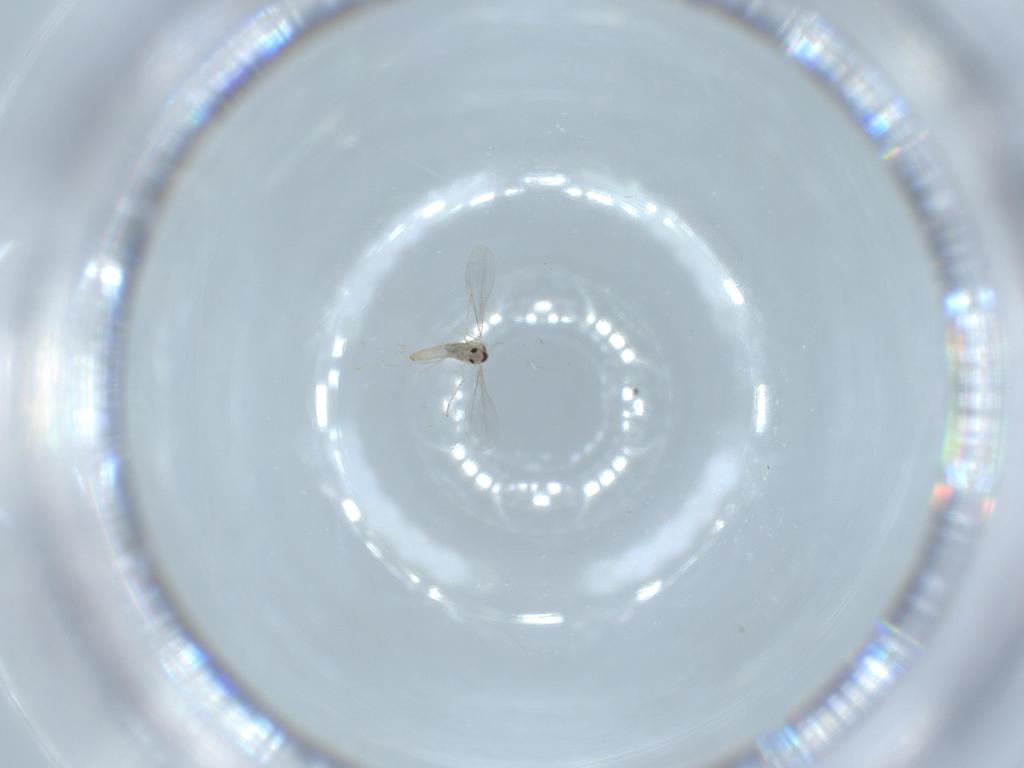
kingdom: Animalia
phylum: Arthropoda
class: Insecta
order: Diptera
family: Cecidomyiidae
